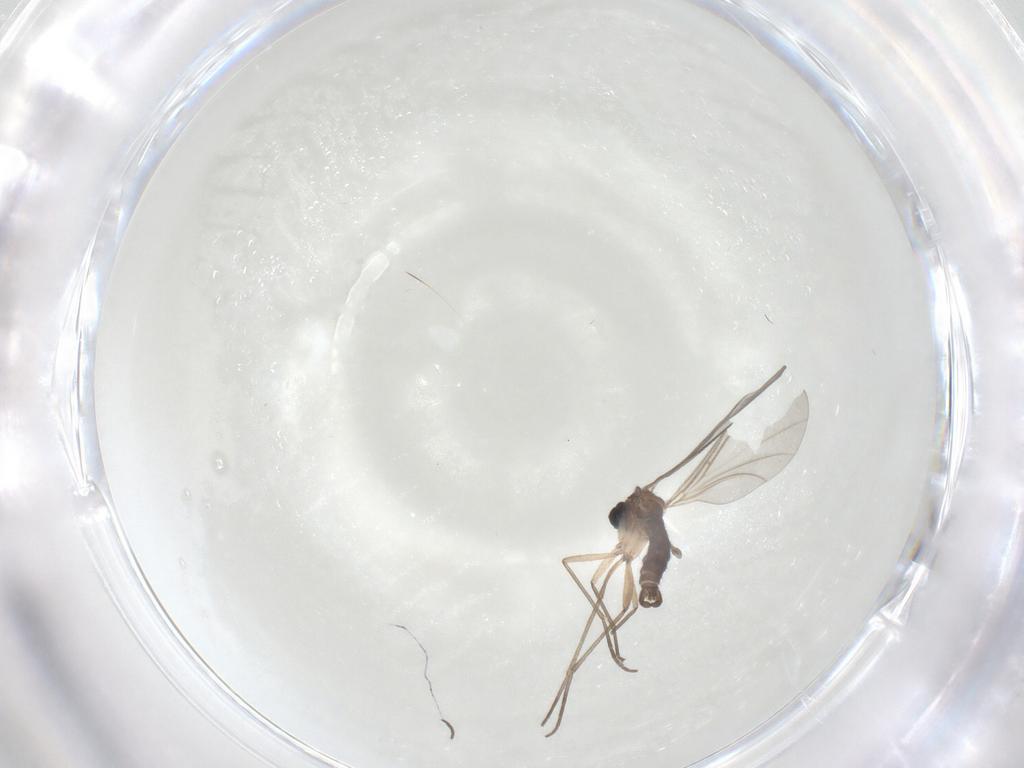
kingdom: Animalia
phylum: Arthropoda
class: Insecta
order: Diptera
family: Sciaridae
